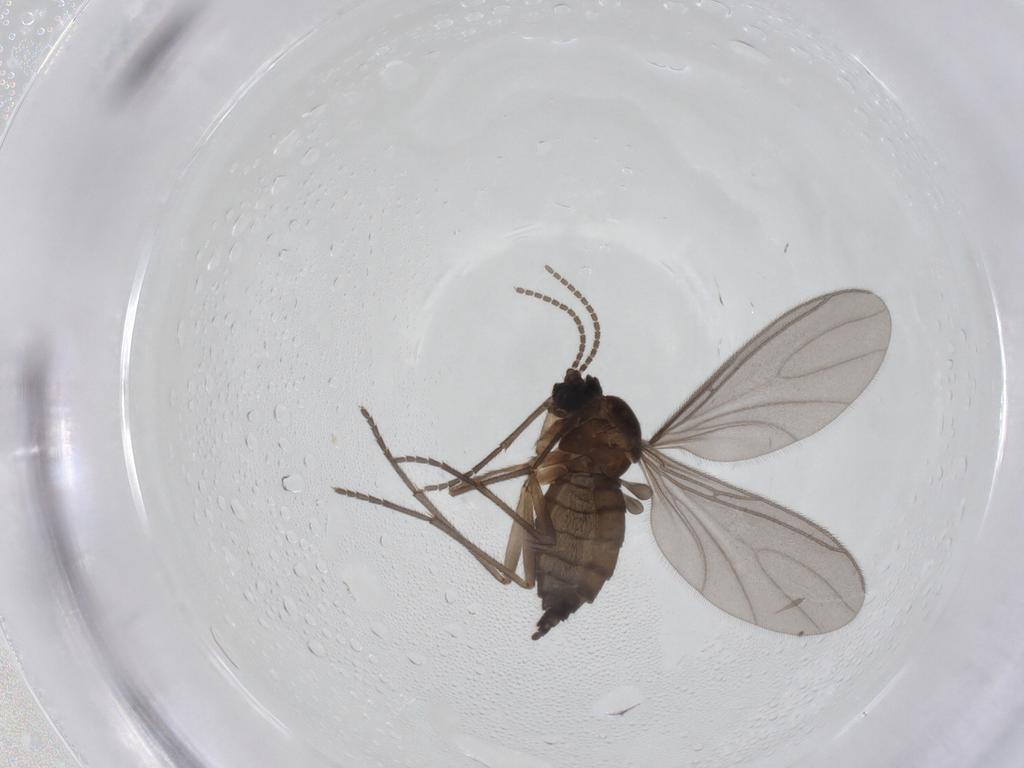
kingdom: Animalia
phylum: Arthropoda
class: Insecta
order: Diptera
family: Sciaridae
